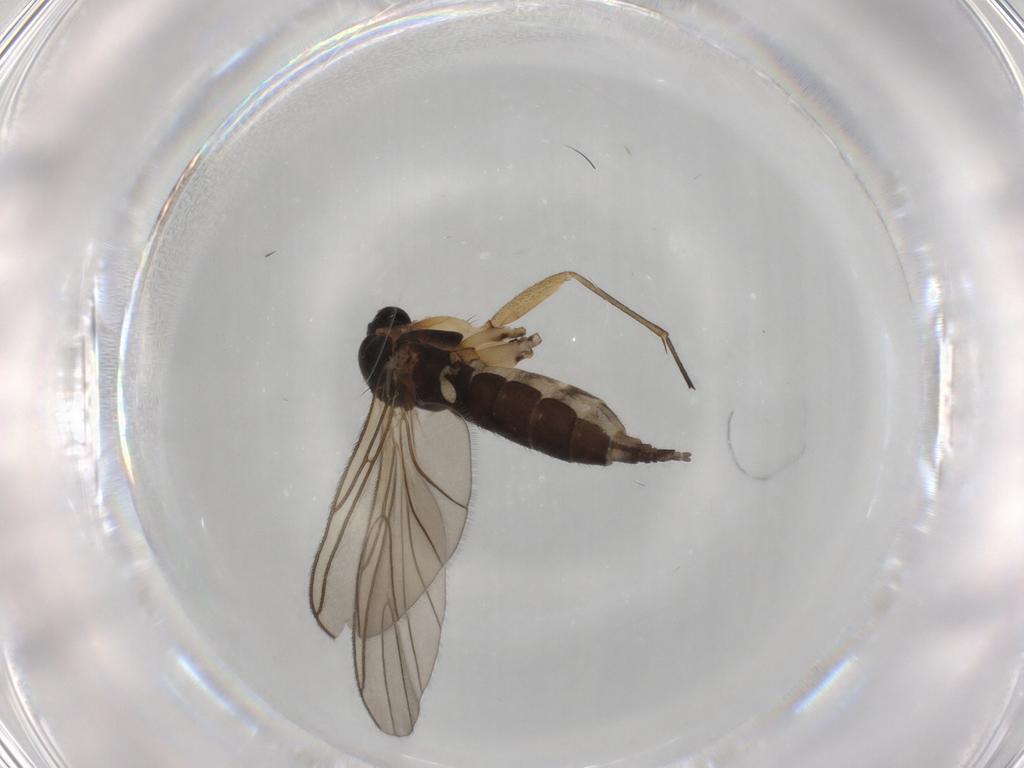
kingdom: Animalia
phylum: Arthropoda
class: Insecta
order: Diptera
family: Sciaridae
